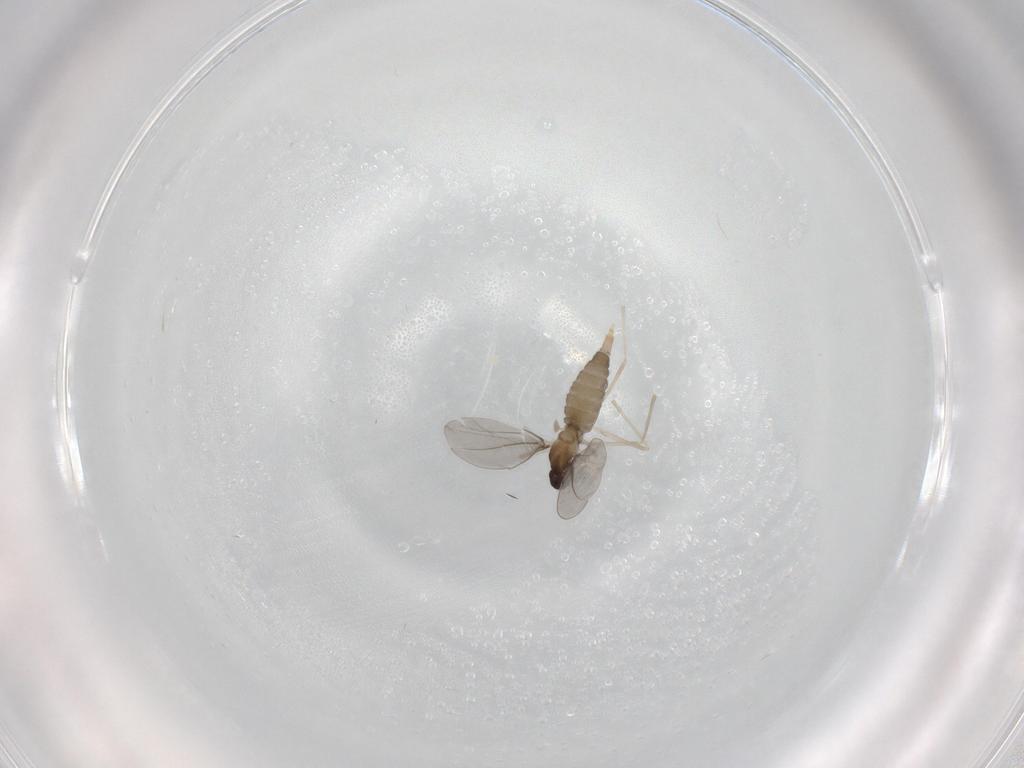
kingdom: Animalia
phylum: Arthropoda
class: Insecta
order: Diptera
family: Cecidomyiidae
